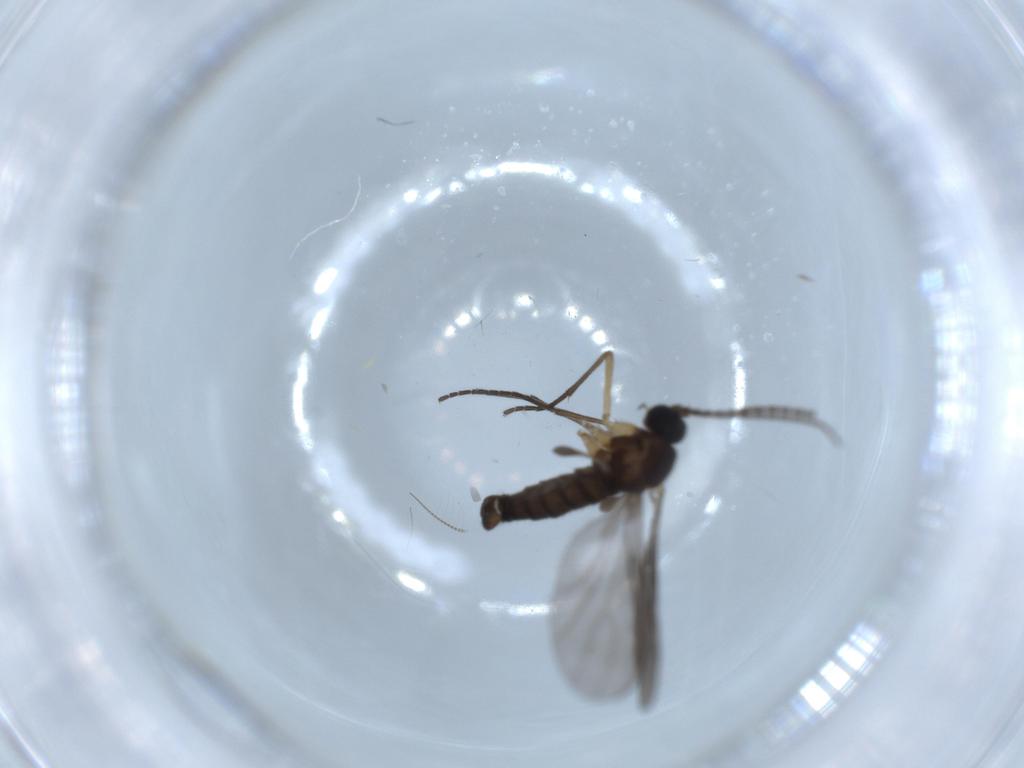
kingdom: Animalia
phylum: Arthropoda
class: Insecta
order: Diptera
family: Sciaridae
